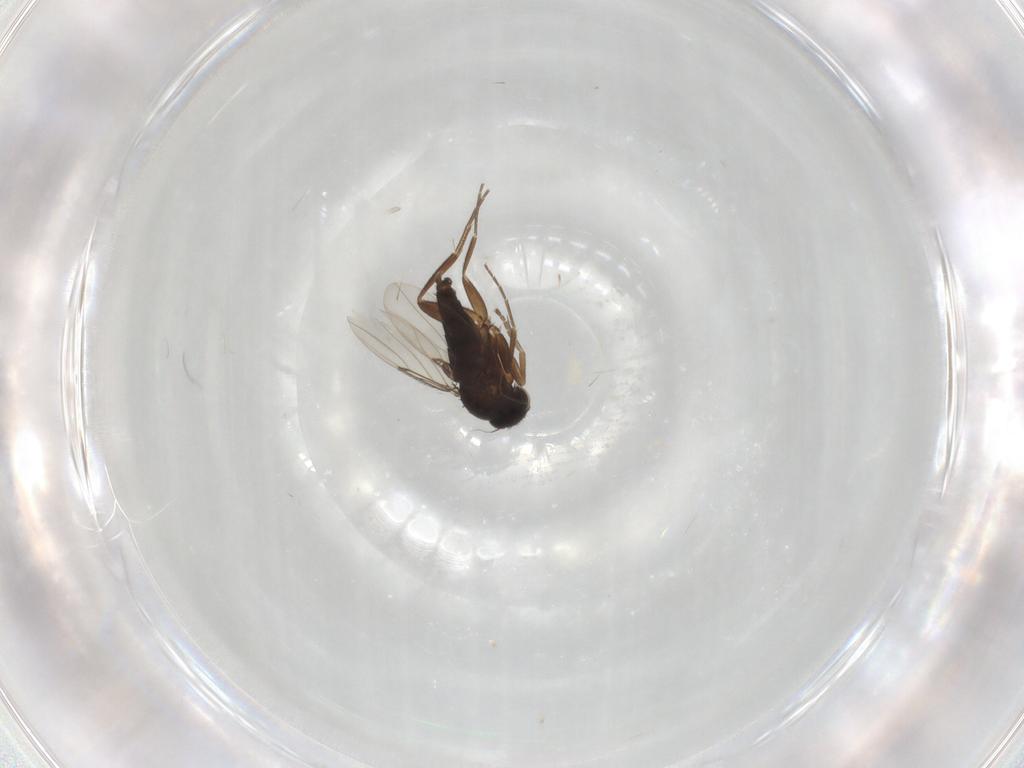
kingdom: Animalia
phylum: Arthropoda
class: Insecta
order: Diptera
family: Phoridae
